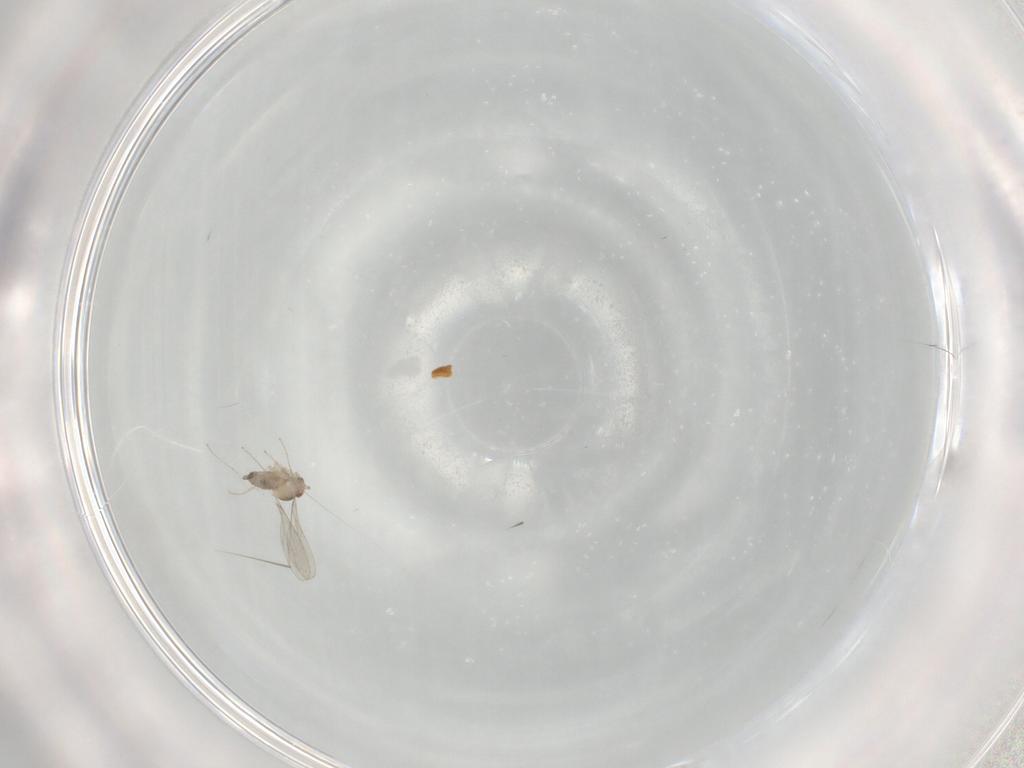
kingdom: Animalia
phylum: Arthropoda
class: Insecta
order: Diptera
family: Cecidomyiidae
